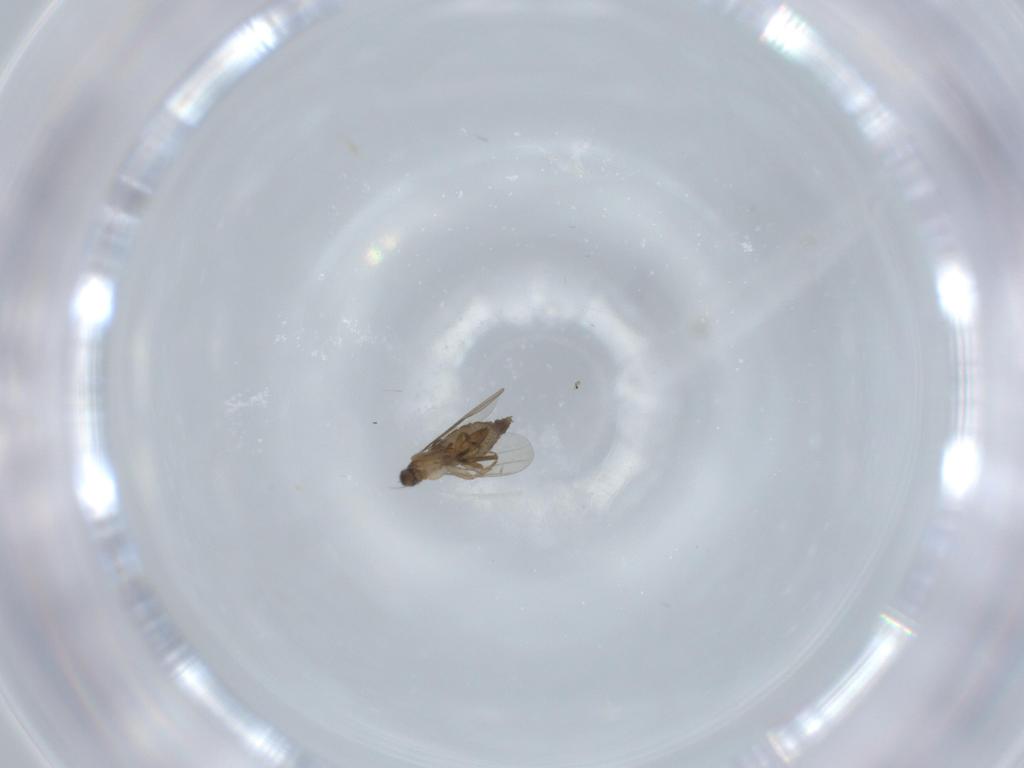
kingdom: Animalia
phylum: Arthropoda
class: Insecta
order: Diptera
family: Phoridae
